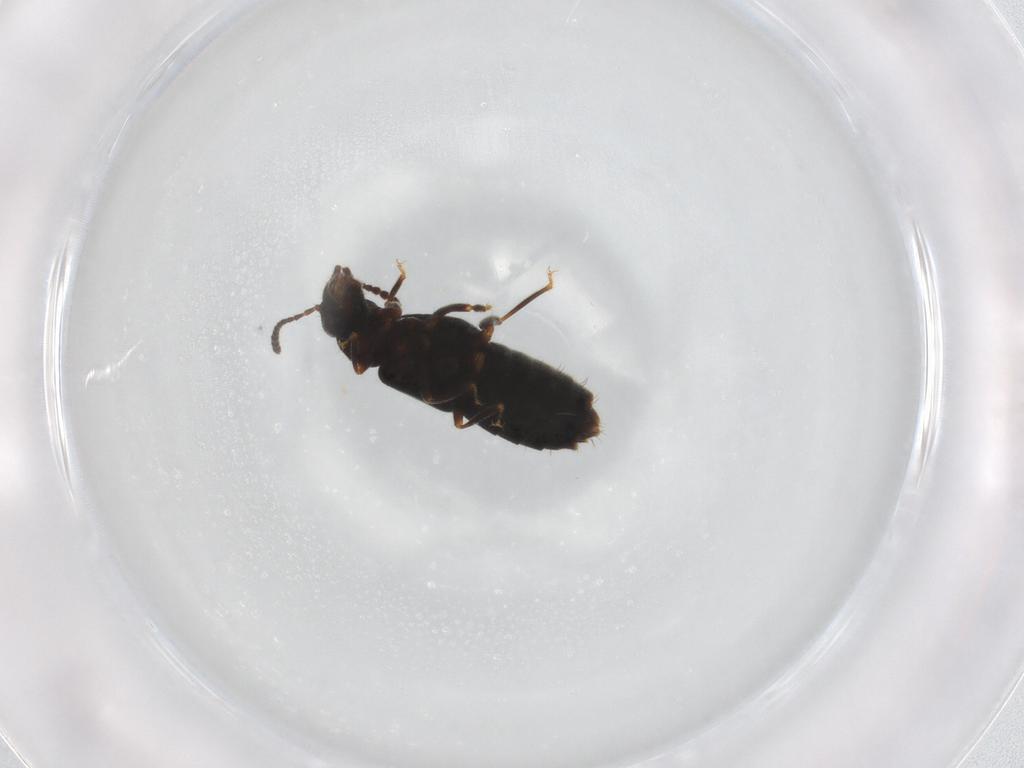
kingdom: Animalia
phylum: Arthropoda
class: Insecta
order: Coleoptera
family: Staphylinidae
